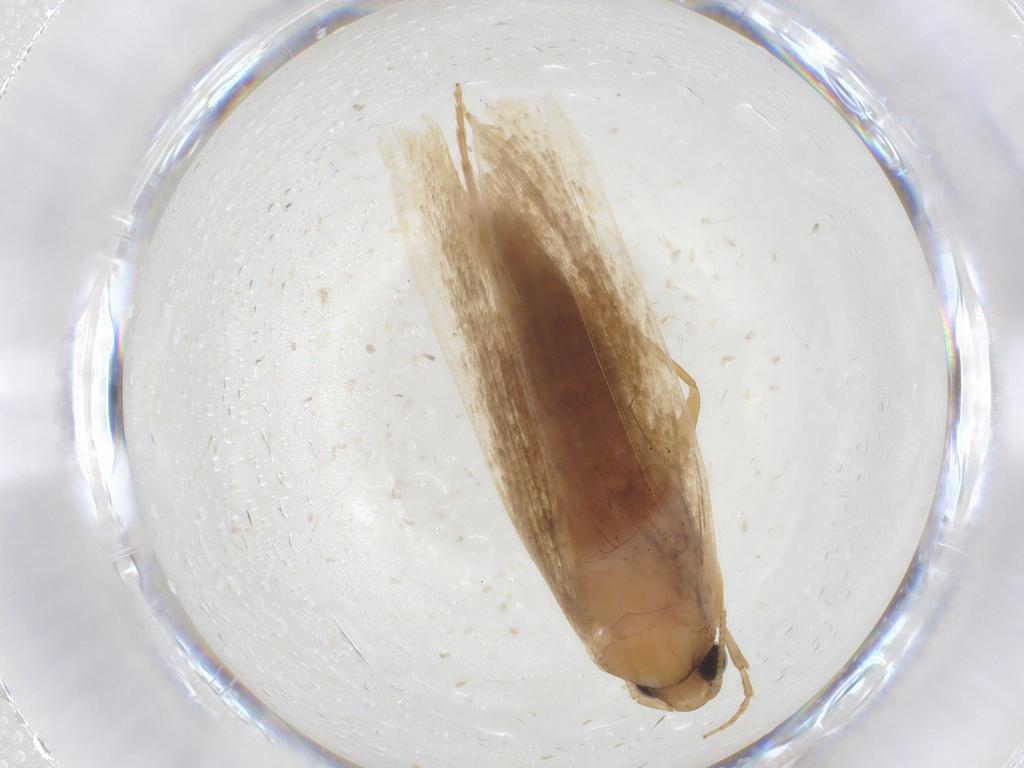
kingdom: Animalia
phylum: Arthropoda
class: Insecta
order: Lepidoptera
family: Tineidae
